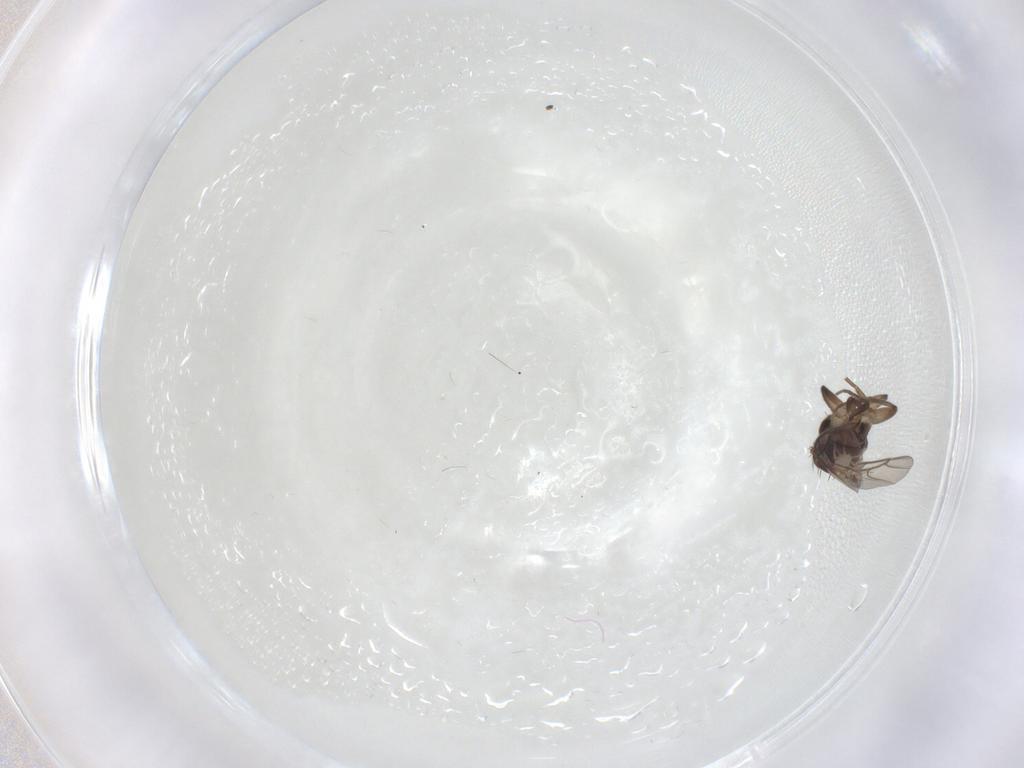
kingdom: Animalia
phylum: Arthropoda
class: Insecta
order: Diptera
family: Phoridae
